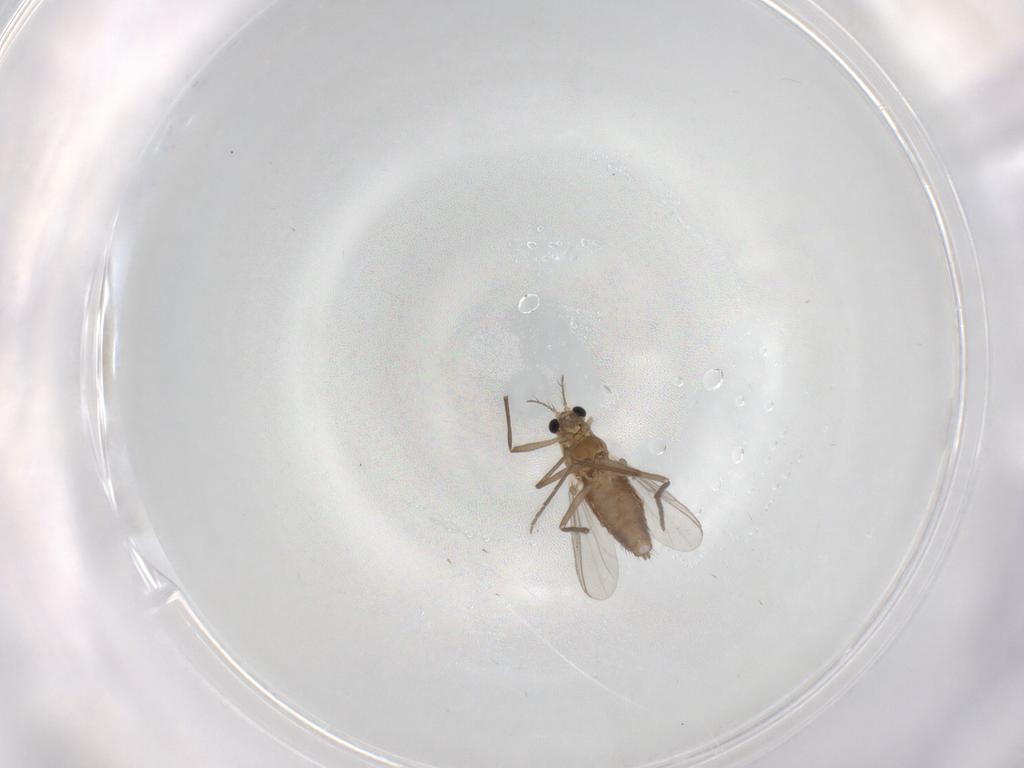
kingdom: Animalia
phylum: Arthropoda
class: Insecta
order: Diptera
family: Chironomidae
